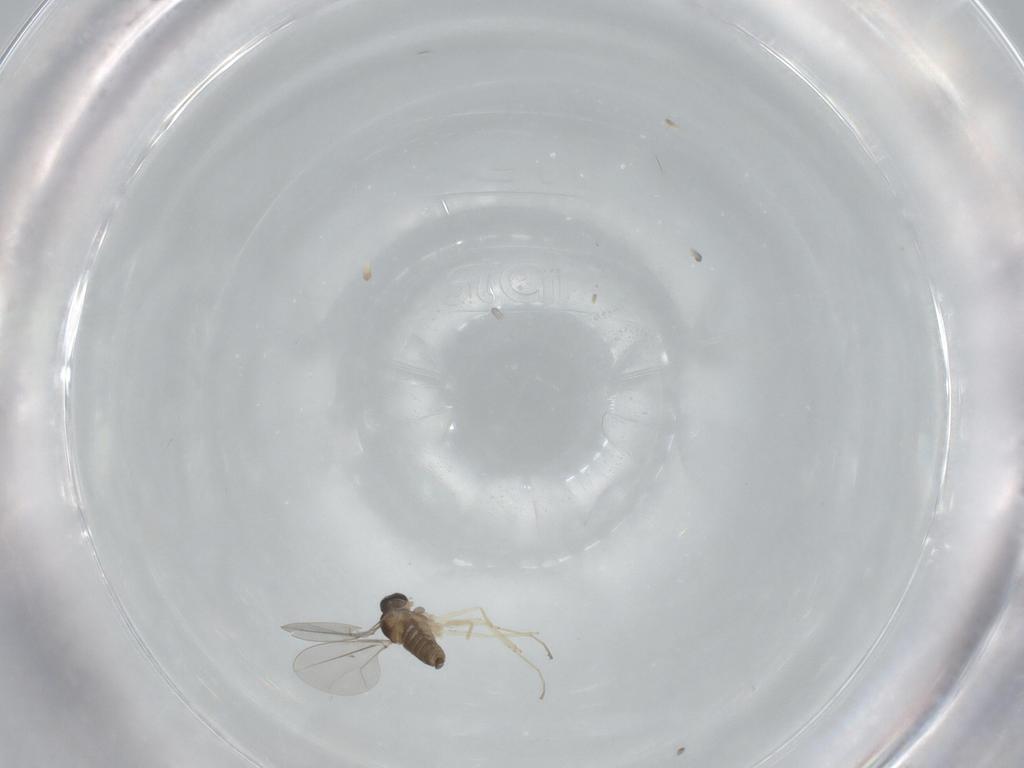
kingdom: Animalia
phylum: Arthropoda
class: Insecta
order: Diptera
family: Cecidomyiidae
